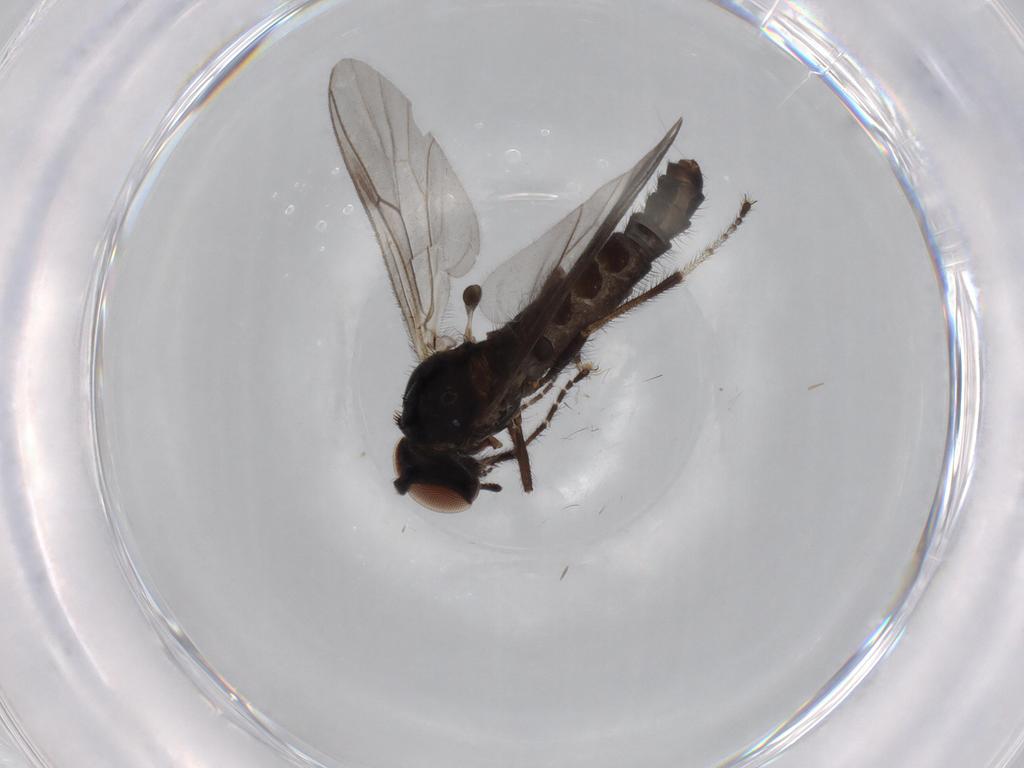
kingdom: Animalia
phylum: Arthropoda
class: Insecta
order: Diptera
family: Bibionidae
